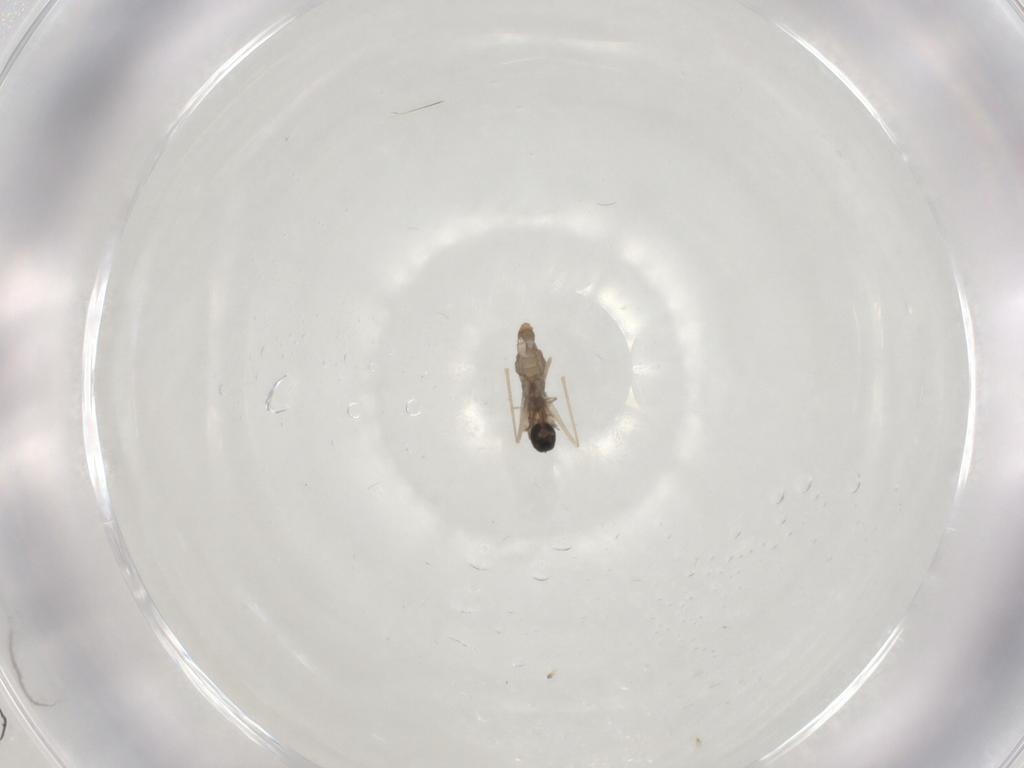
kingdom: Animalia
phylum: Arthropoda
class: Insecta
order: Diptera
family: Cecidomyiidae
